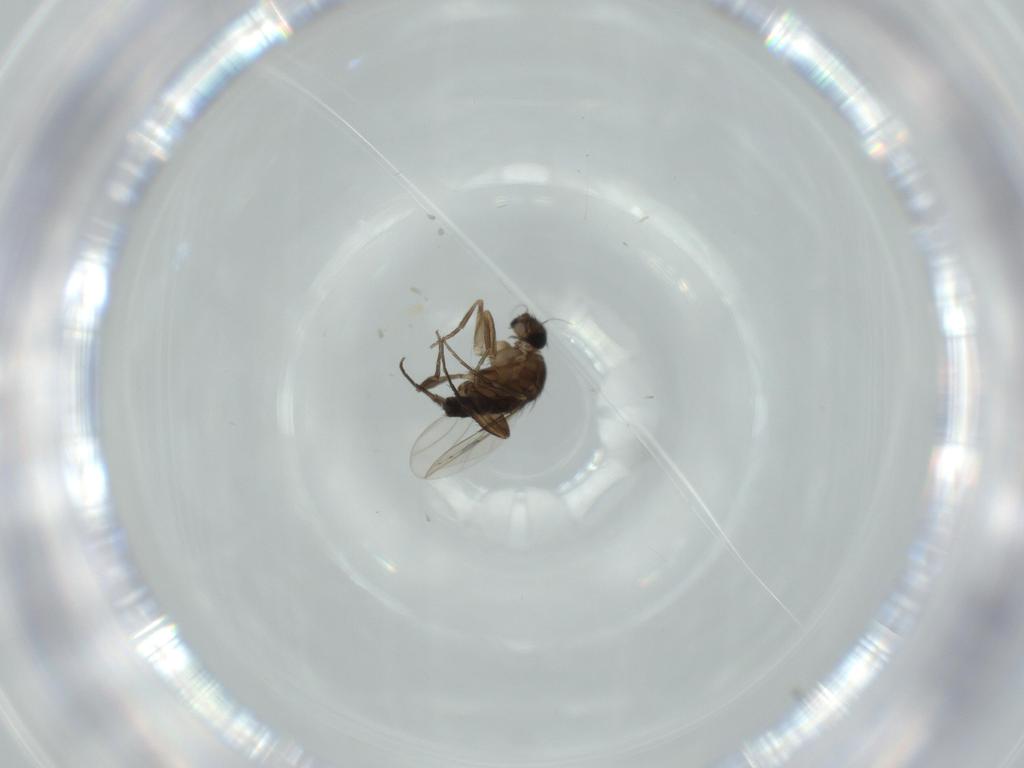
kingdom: Animalia
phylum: Arthropoda
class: Insecta
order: Diptera
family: Phoridae
